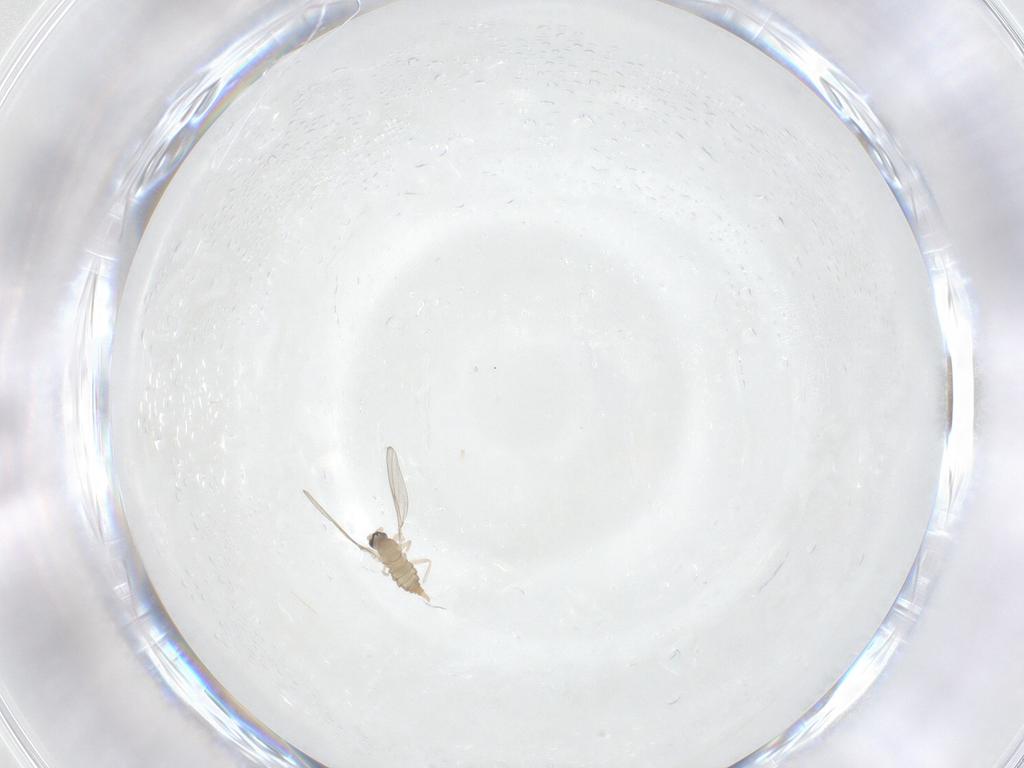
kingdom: Animalia
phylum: Arthropoda
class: Insecta
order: Diptera
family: Cecidomyiidae
